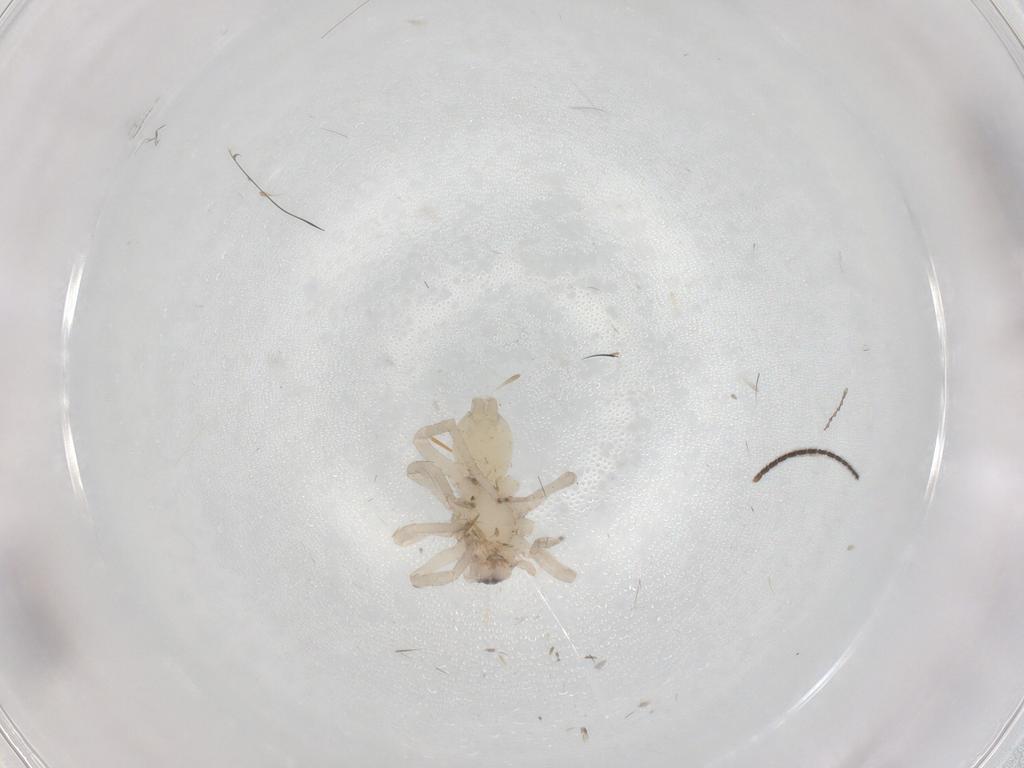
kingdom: Animalia
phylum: Arthropoda
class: Arachnida
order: Araneae
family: Clubionidae
